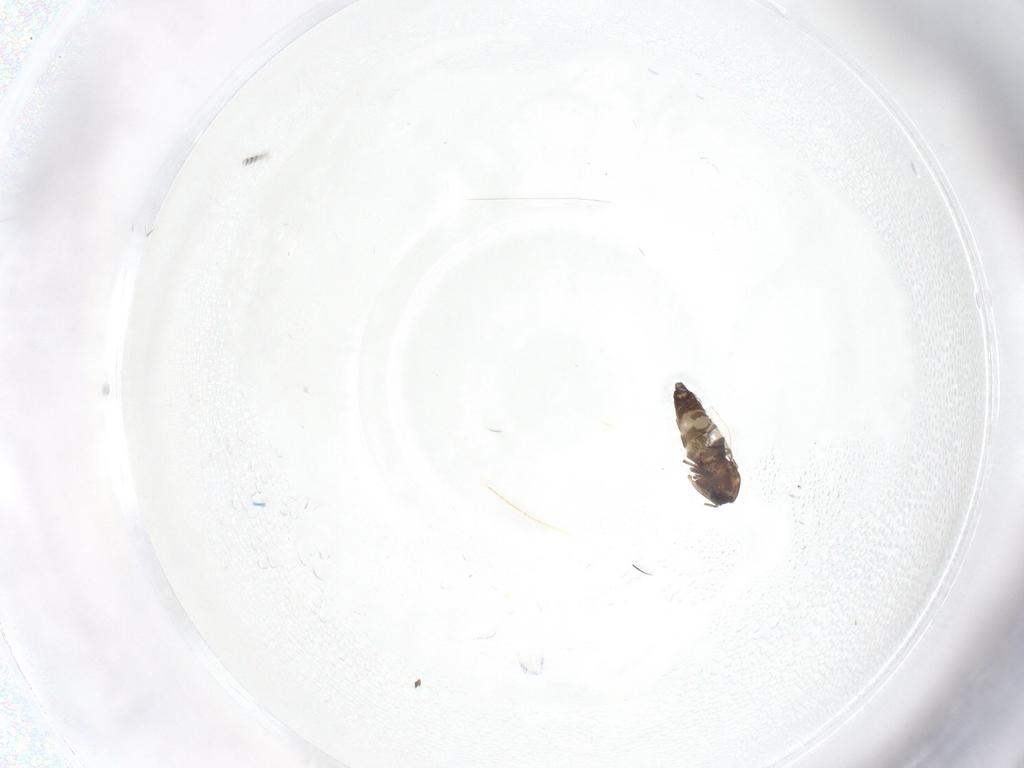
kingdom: Animalia
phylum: Arthropoda
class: Insecta
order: Diptera
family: Chironomidae
